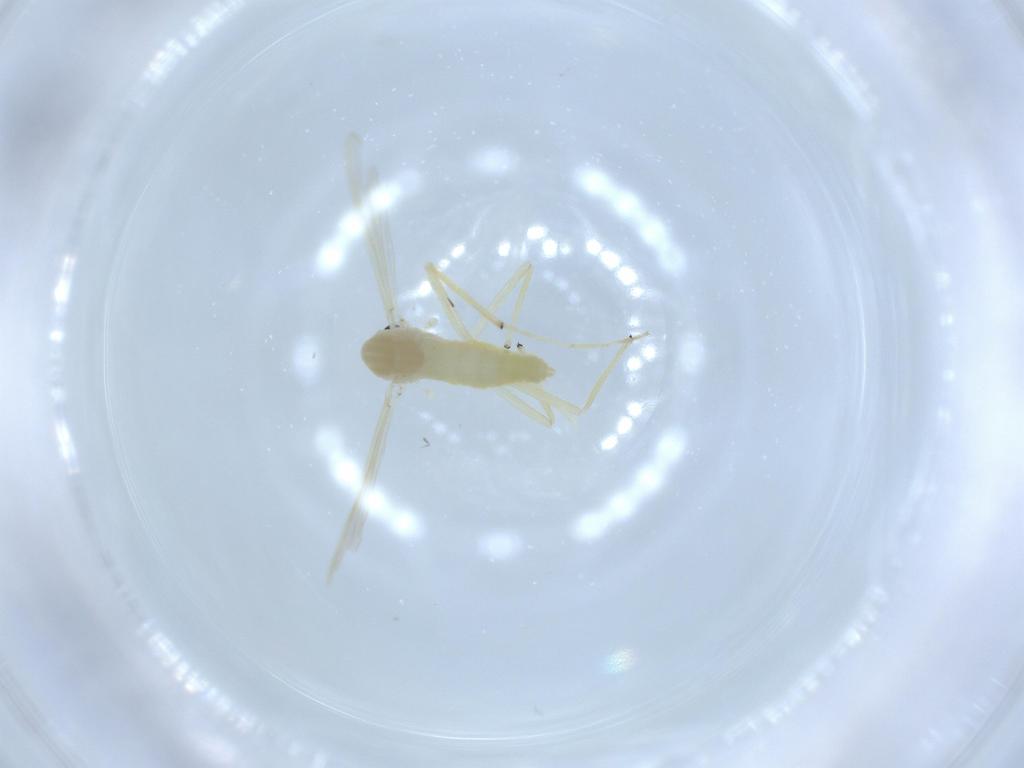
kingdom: Animalia
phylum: Arthropoda
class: Insecta
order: Diptera
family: Chironomidae
